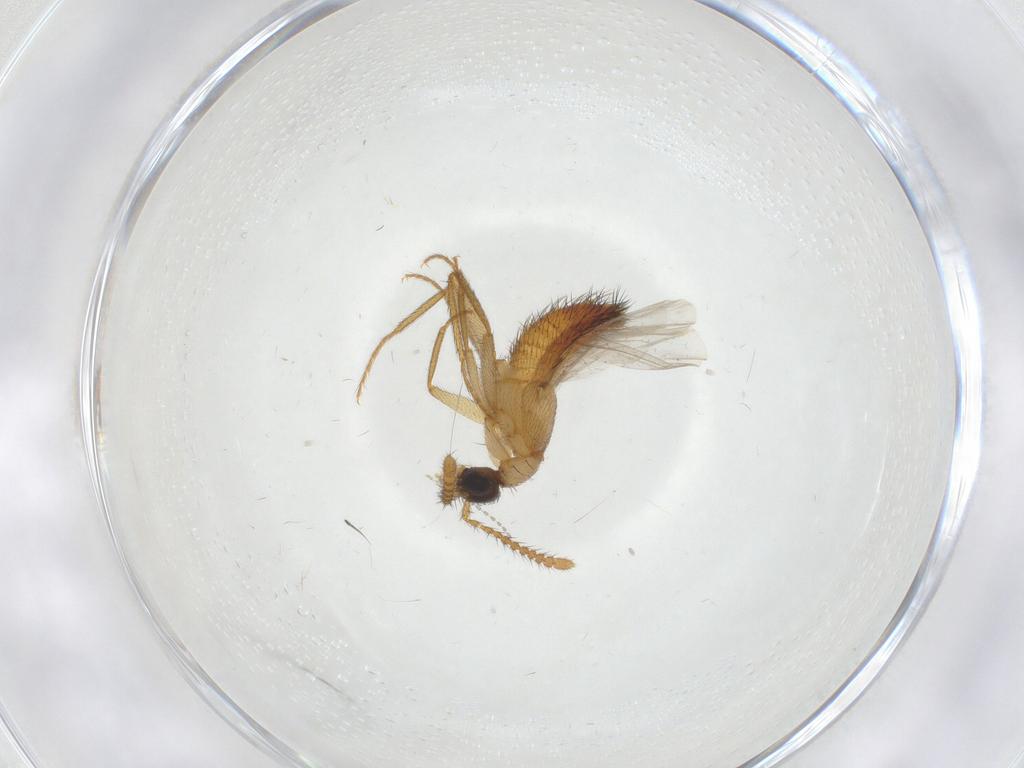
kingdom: Animalia
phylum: Arthropoda
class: Insecta
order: Coleoptera
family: Staphylinidae
